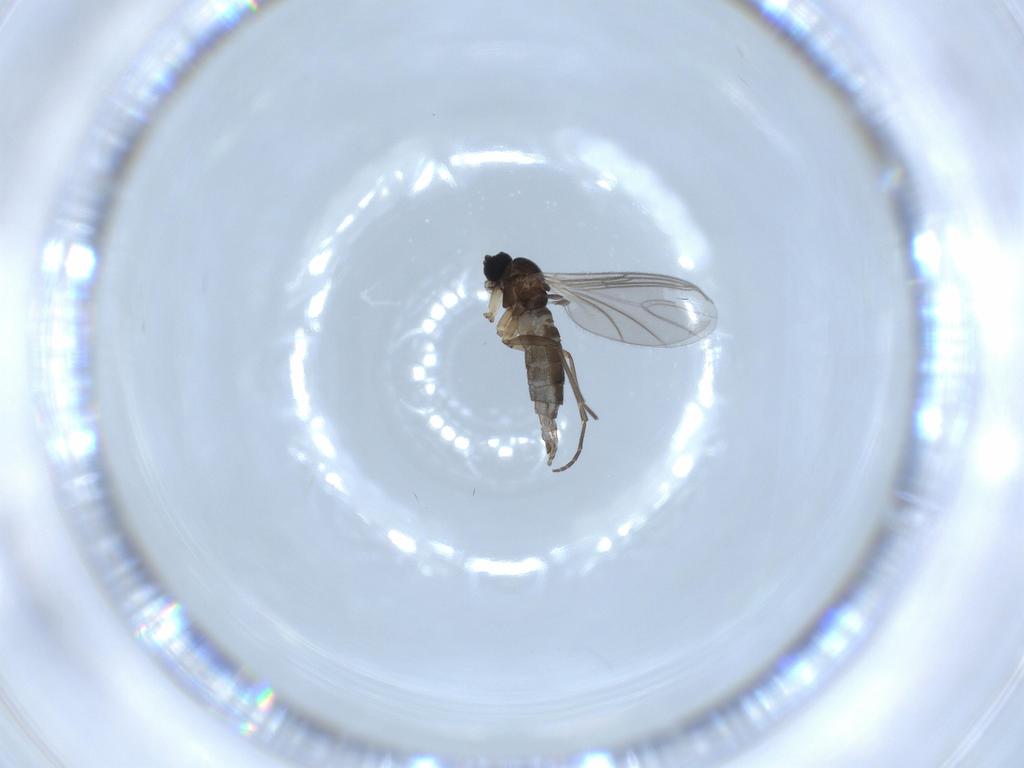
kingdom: Animalia
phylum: Arthropoda
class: Insecta
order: Diptera
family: Sciaridae
